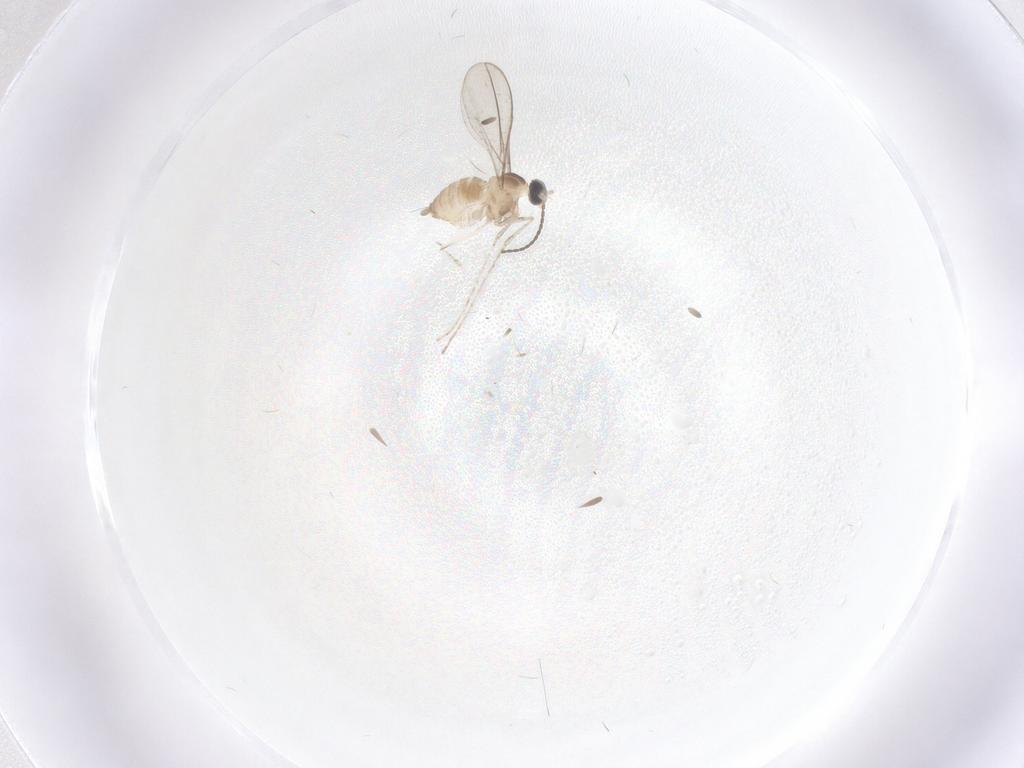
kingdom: Animalia
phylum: Arthropoda
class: Insecta
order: Diptera
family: Cecidomyiidae
